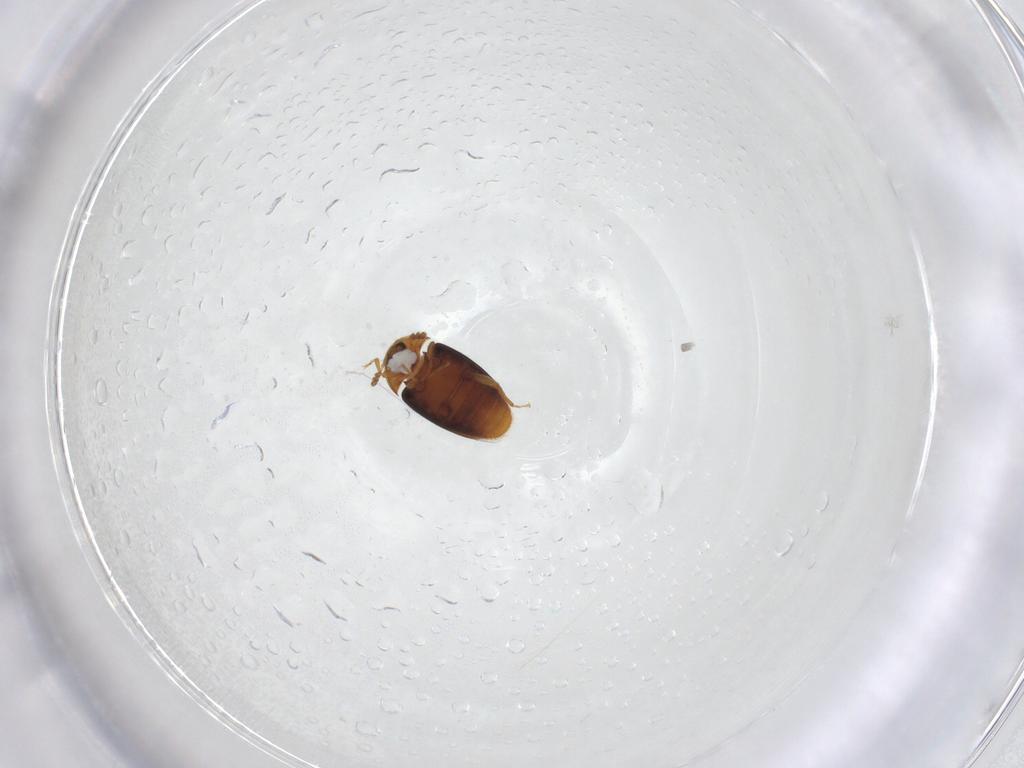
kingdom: Animalia
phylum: Arthropoda
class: Insecta
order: Coleoptera
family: Corylophidae
